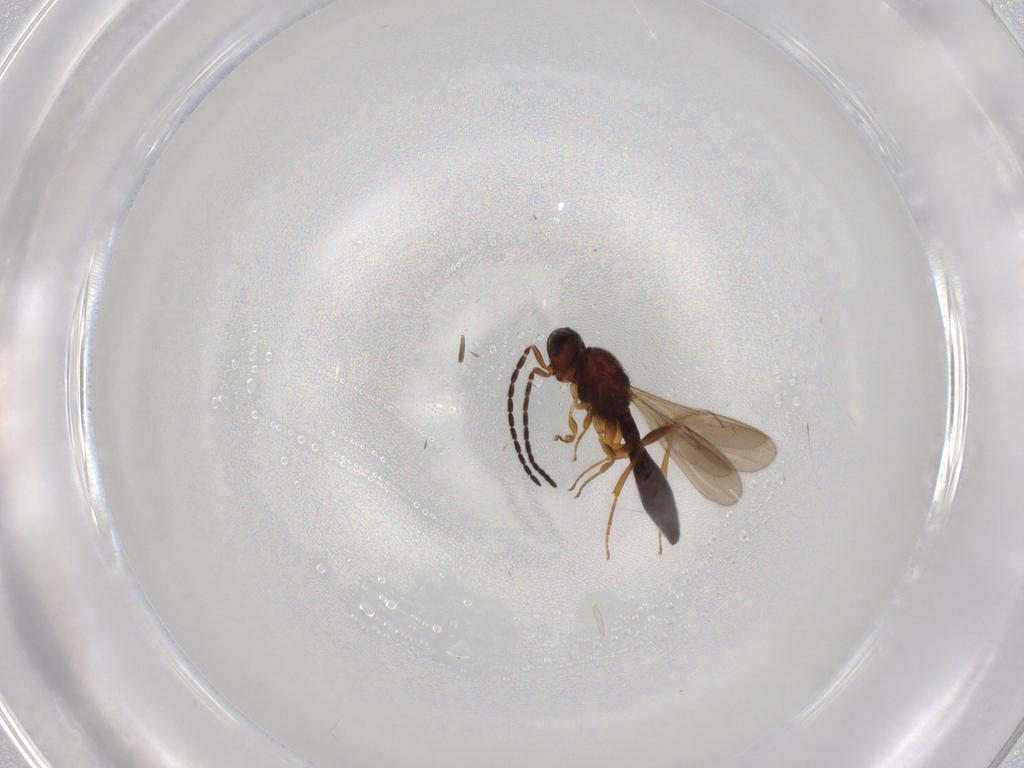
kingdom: Animalia
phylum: Arthropoda
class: Insecta
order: Hymenoptera
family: Scelionidae
